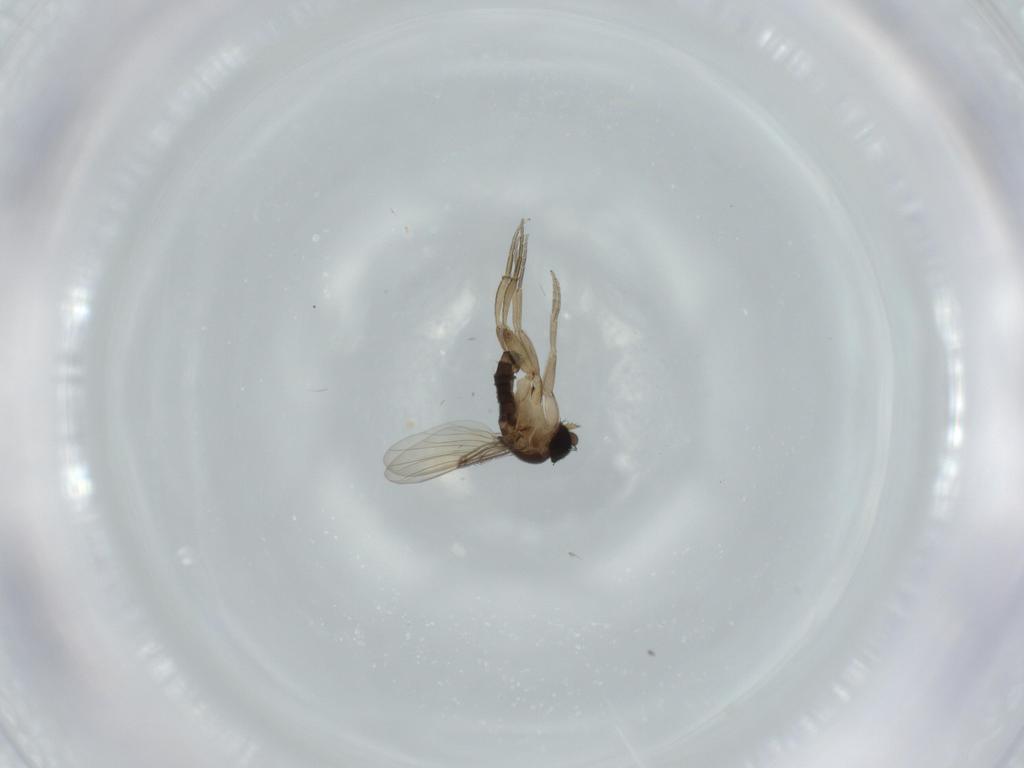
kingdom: Animalia
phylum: Arthropoda
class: Insecta
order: Diptera
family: Phoridae
